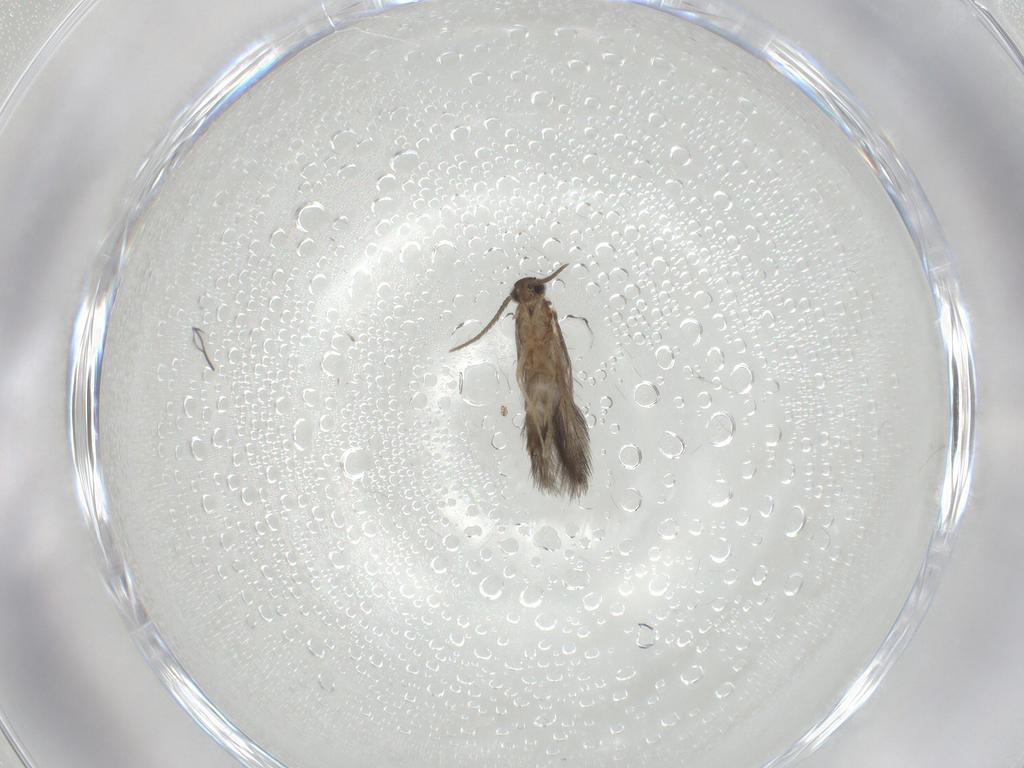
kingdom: Animalia
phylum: Arthropoda
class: Insecta
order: Trichoptera
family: Hydroptilidae
